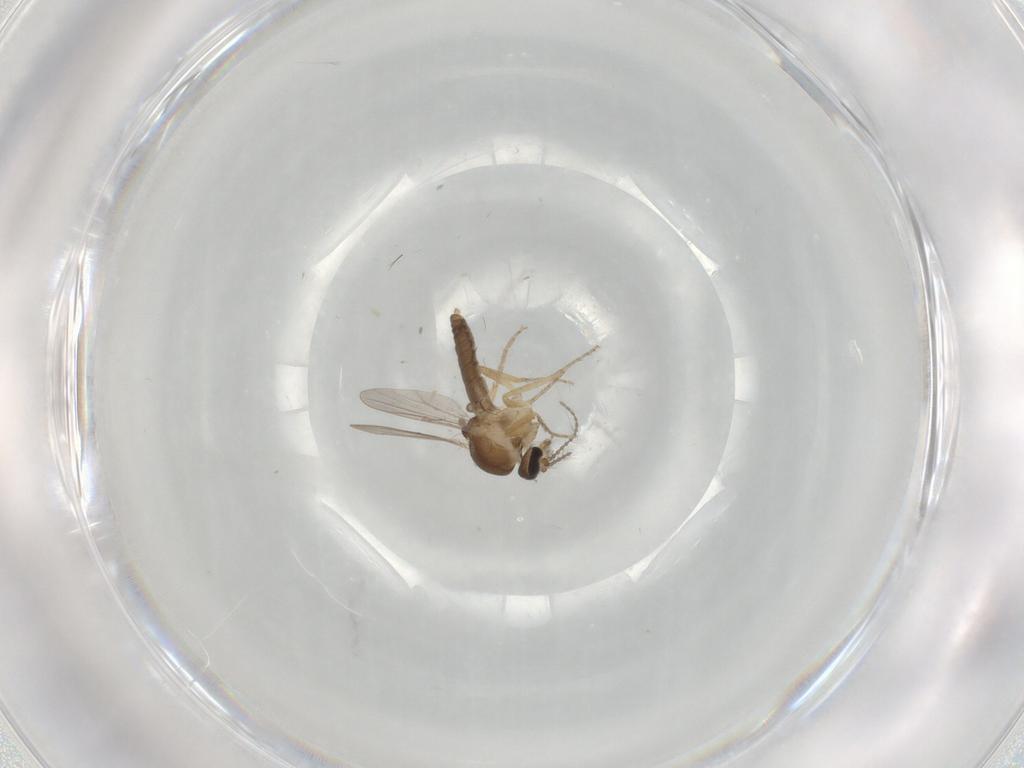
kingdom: Animalia
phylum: Arthropoda
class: Insecta
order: Diptera
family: Ceratopogonidae
